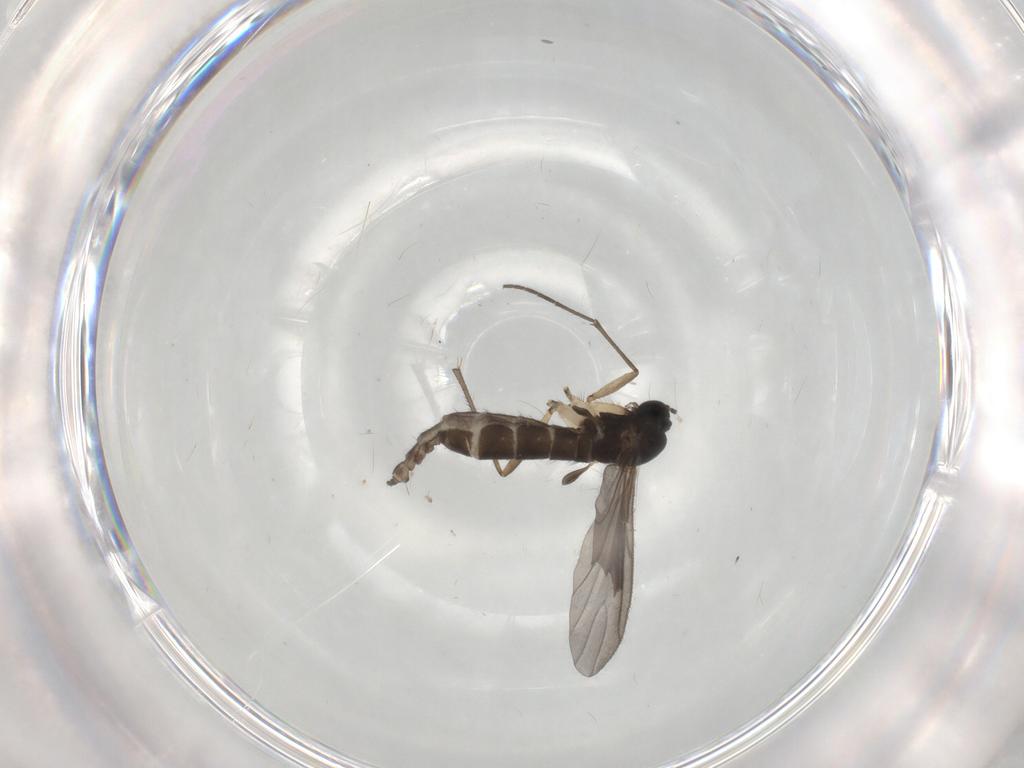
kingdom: Animalia
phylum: Arthropoda
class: Insecta
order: Diptera
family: Sciaridae
